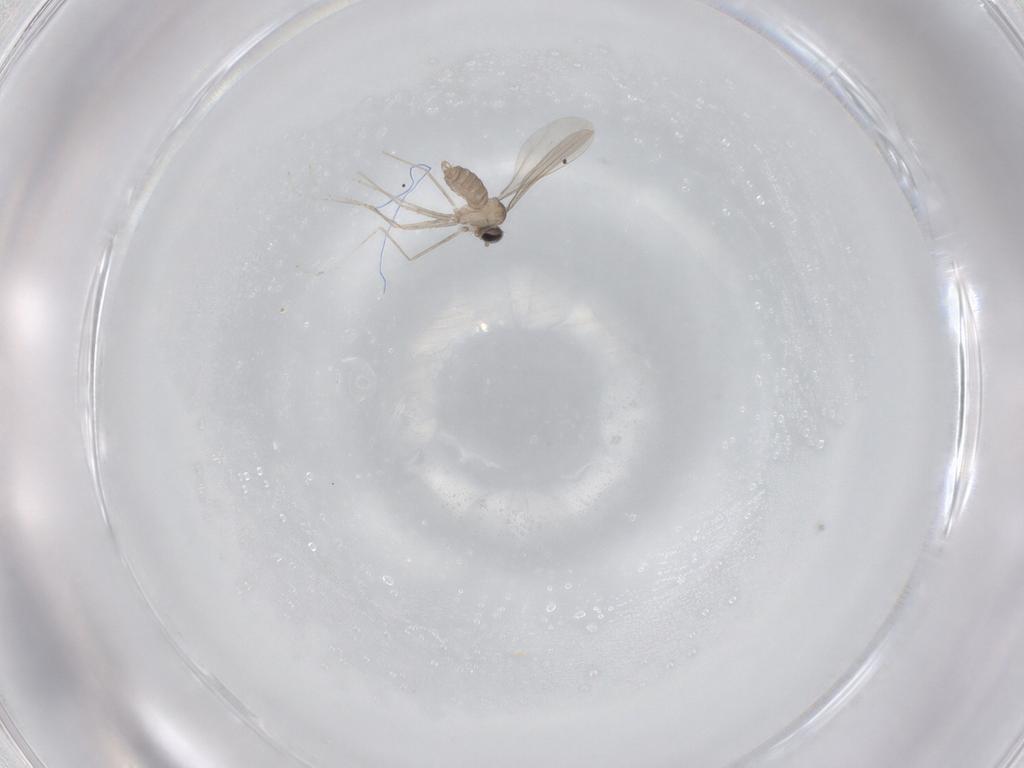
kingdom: Animalia
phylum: Arthropoda
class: Insecta
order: Diptera
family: Cecidomyiidae
